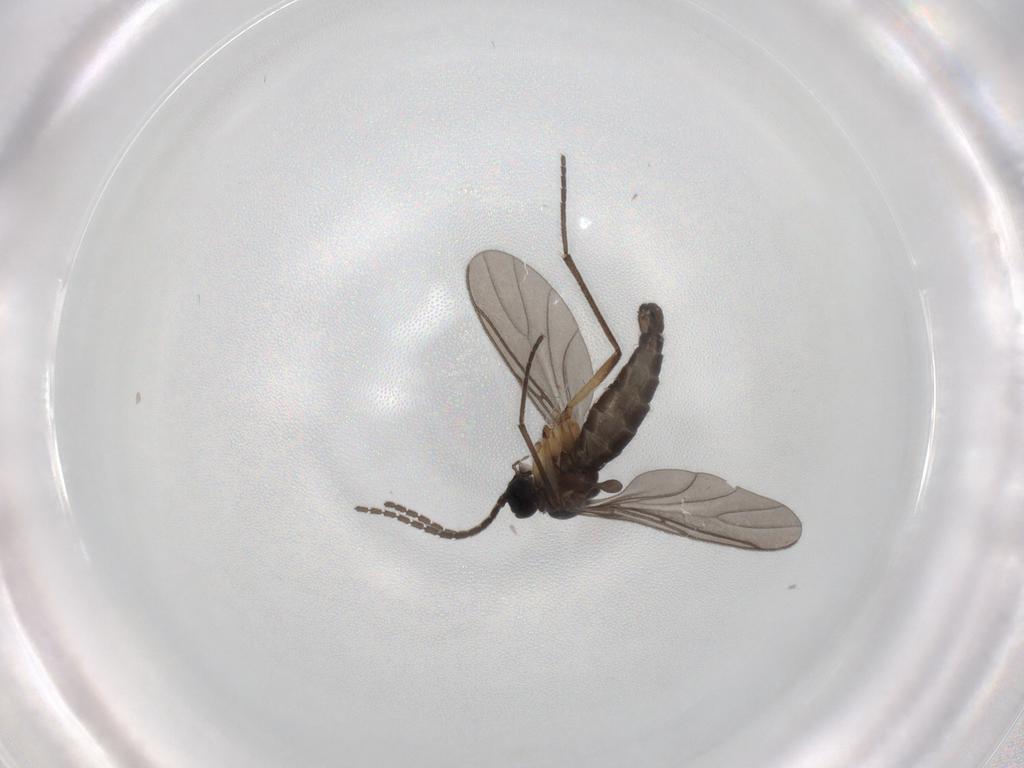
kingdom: Animalia
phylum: Arthropoda
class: Insecta
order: Diptera
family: Sciaridae
